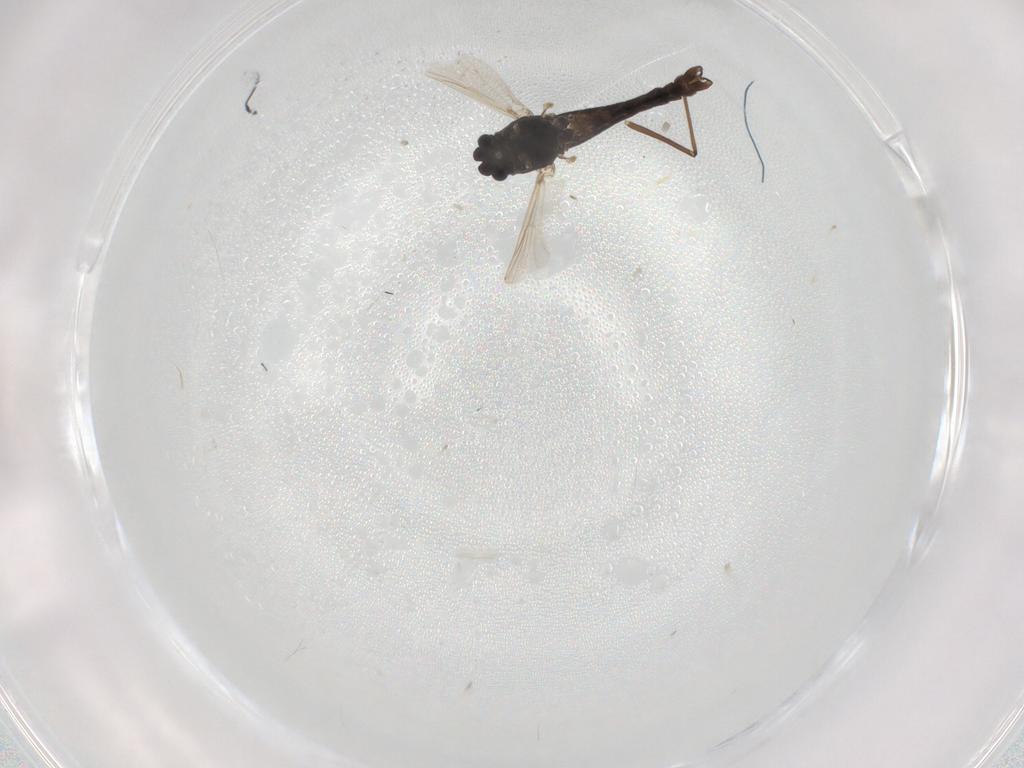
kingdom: Animalia
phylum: Arthropoda
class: Insecta
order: Diptera
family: Chironomidae
